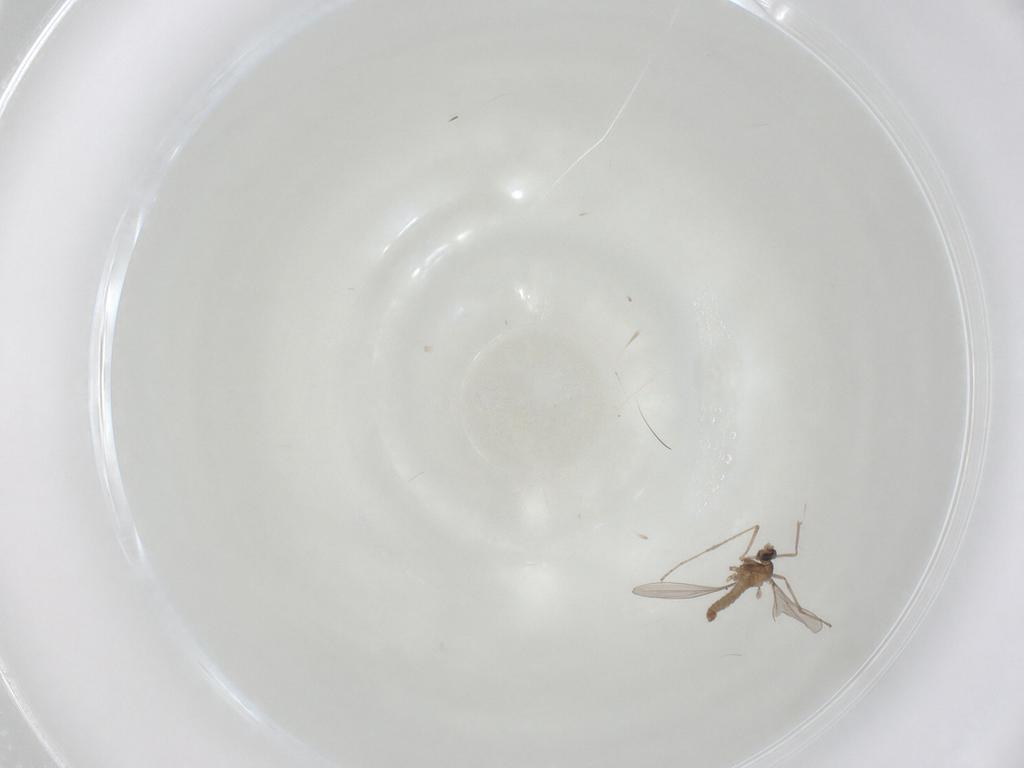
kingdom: Animalia
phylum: Arthropoda
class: Insecta
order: Diptera
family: Cecidomyiidae
